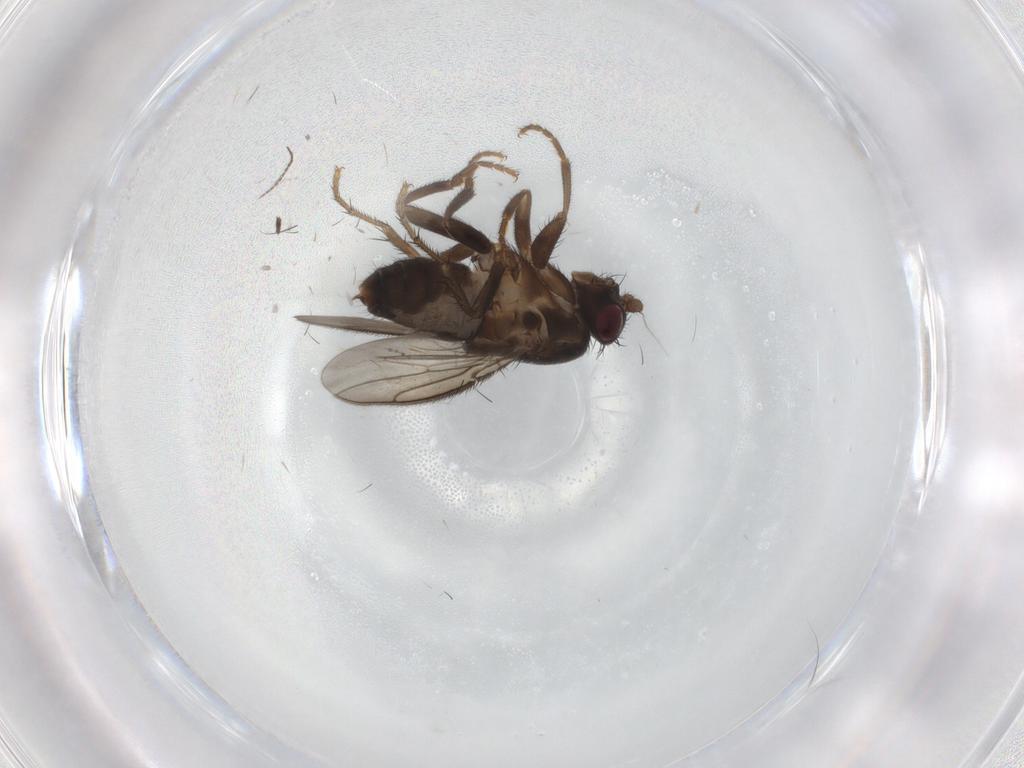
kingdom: Animalia
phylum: Arthropoda
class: Insecta
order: Diptera
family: Sphaeroceridae
